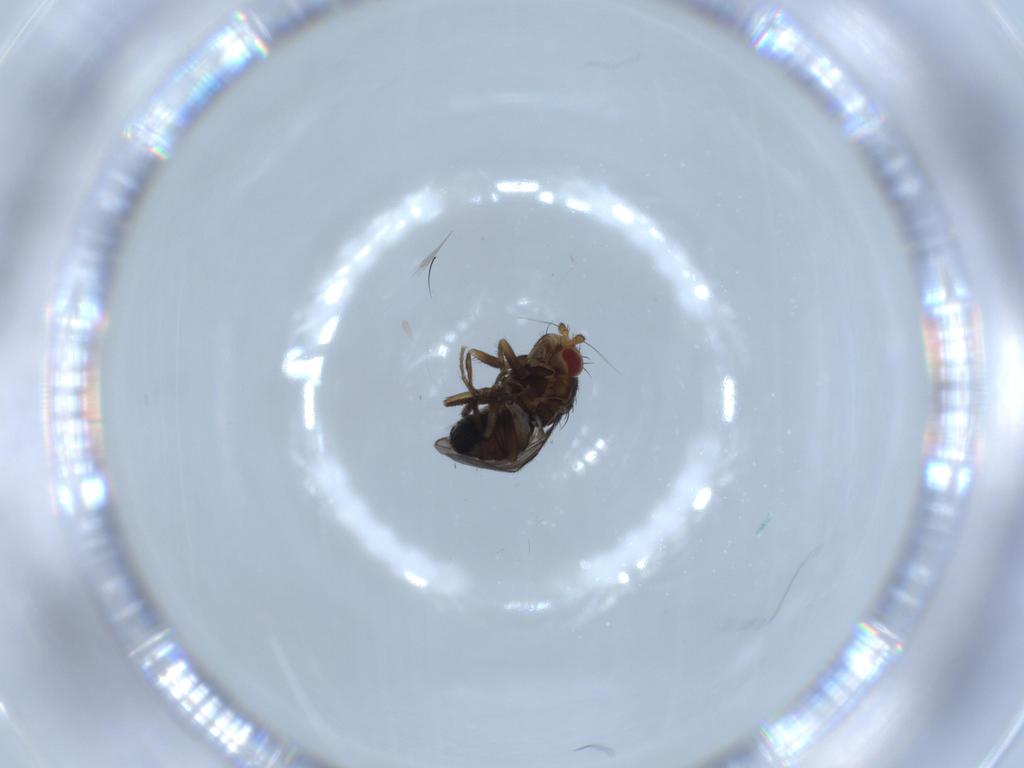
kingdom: Animalia
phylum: Arthropoda
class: Insecta
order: Diptera
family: Sphaeroceridae
